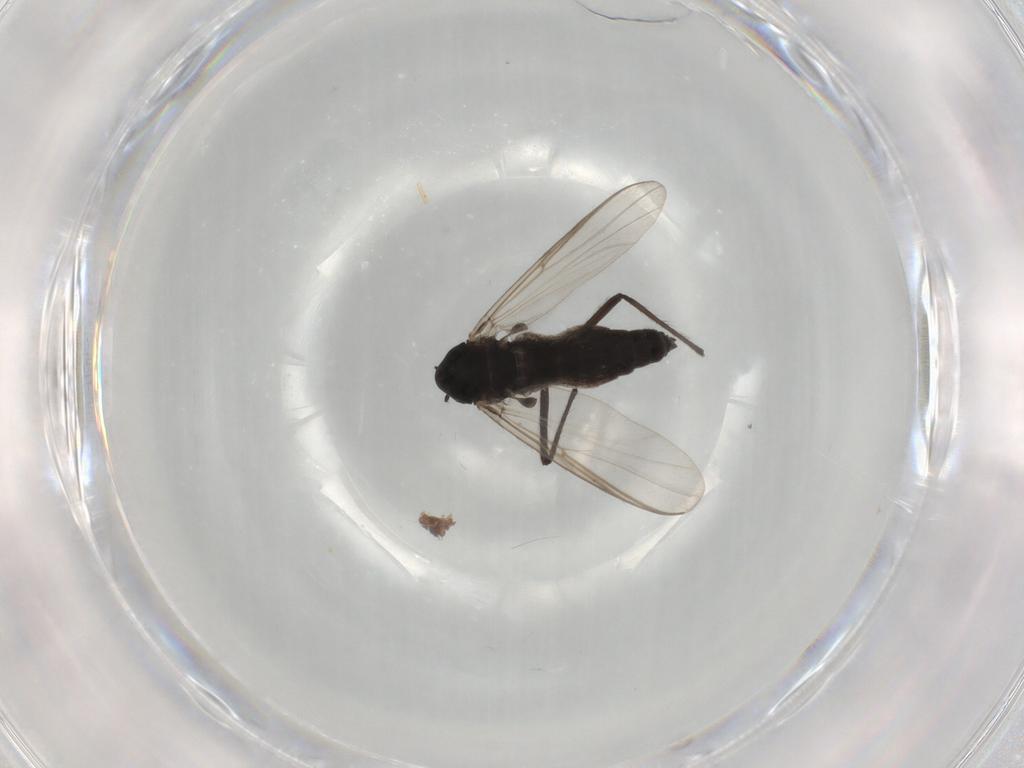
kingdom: Animalia
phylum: Arthropoda
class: Insecta
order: Diptera
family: Chironomidae
